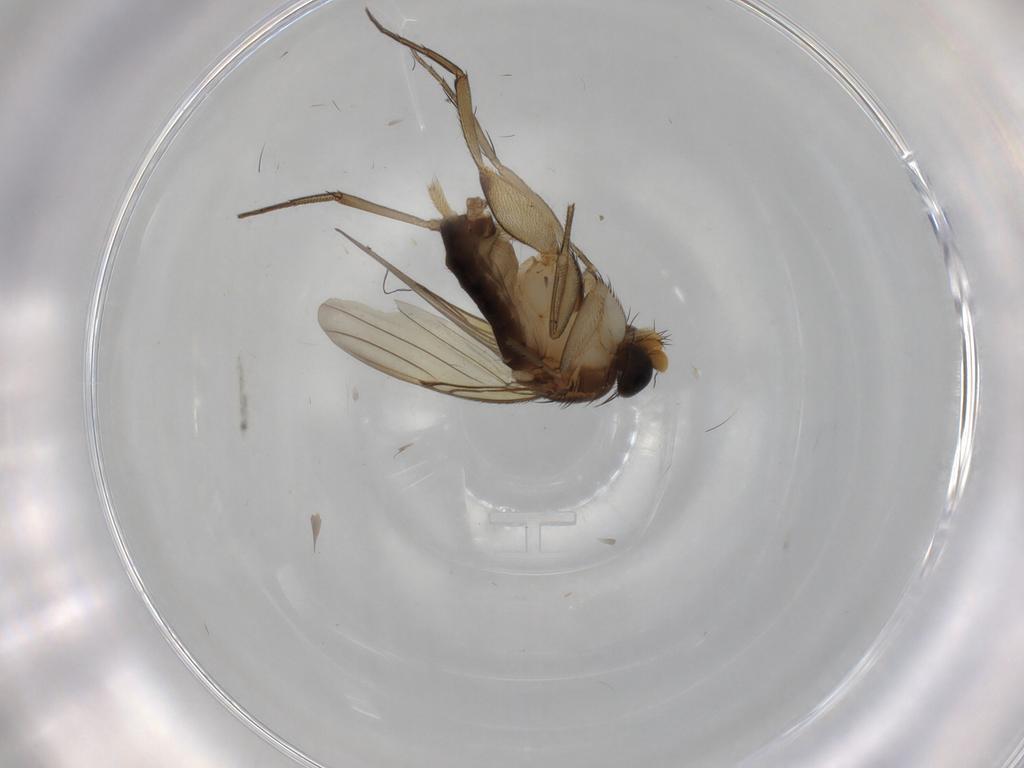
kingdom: Animalia
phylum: Arthropoda
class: Insecta
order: Diptera
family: Phoridae
